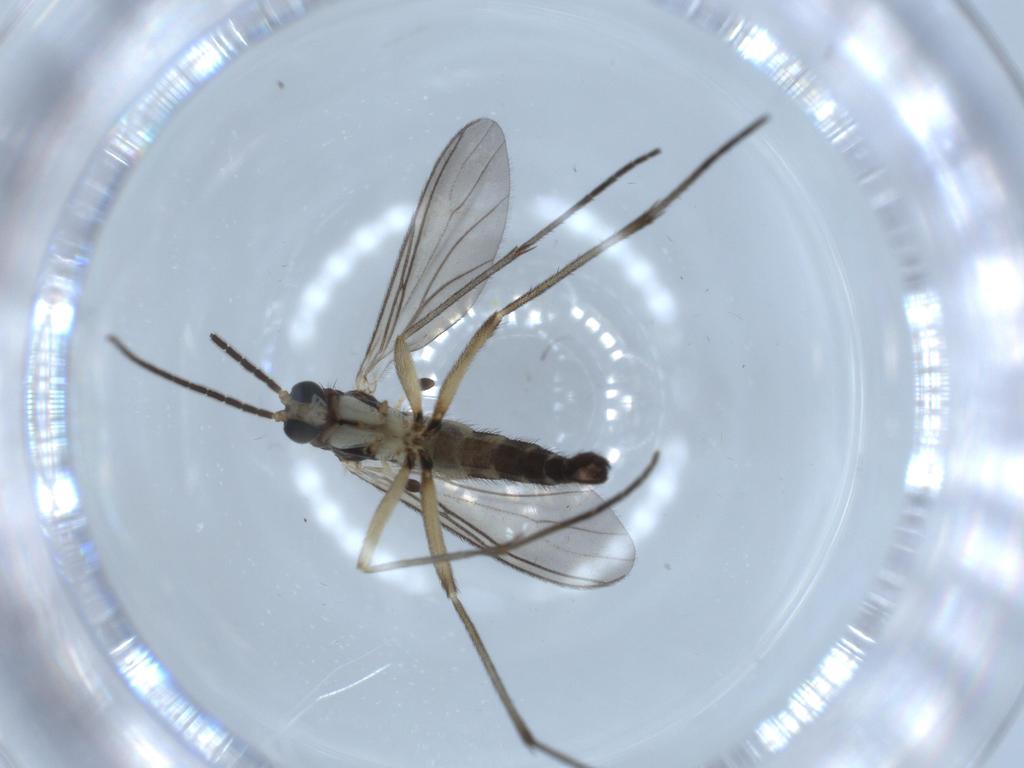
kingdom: Animalia
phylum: Arthropoda
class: Insecta
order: Diptera
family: Sciaridae
